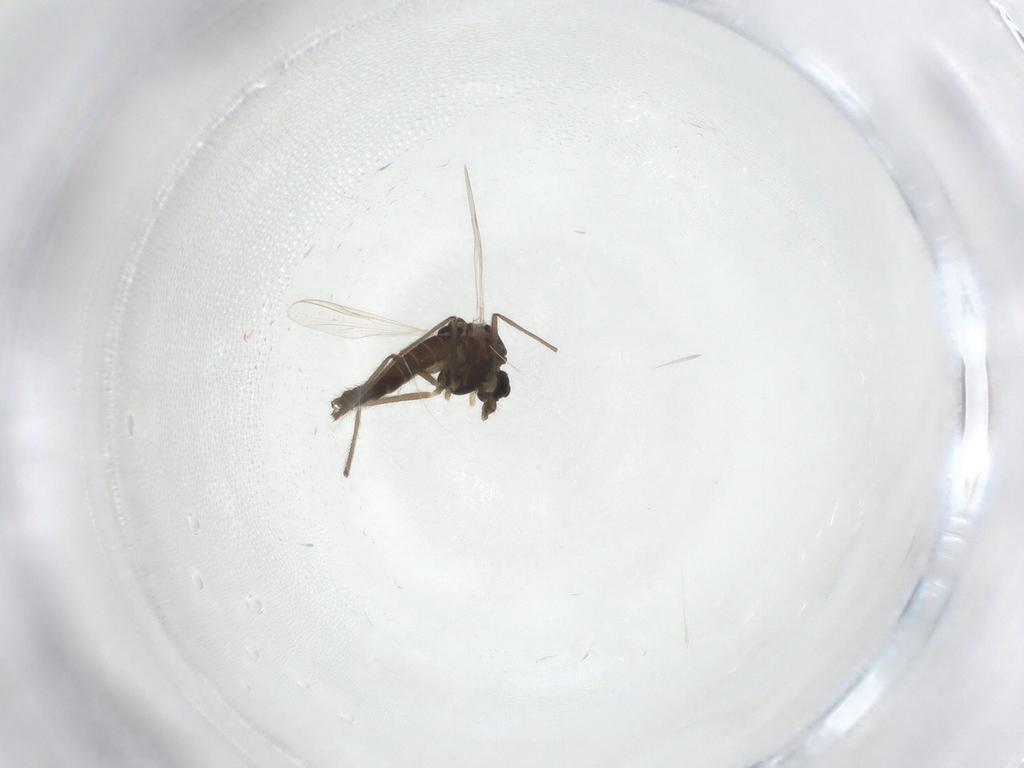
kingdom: Animalia
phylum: Arthropoda
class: Insecta
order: Diptera
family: Chironomidae
